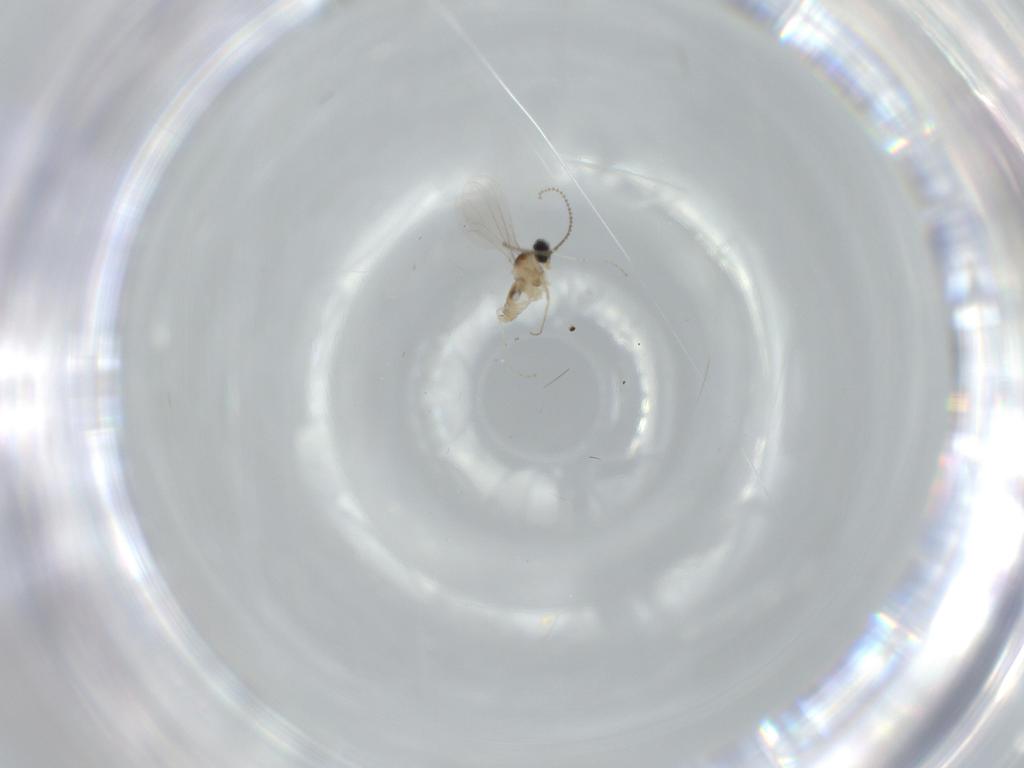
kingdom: Animalia
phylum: Arthropoda
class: Insecta
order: Diptera
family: Cecidomyiidae
